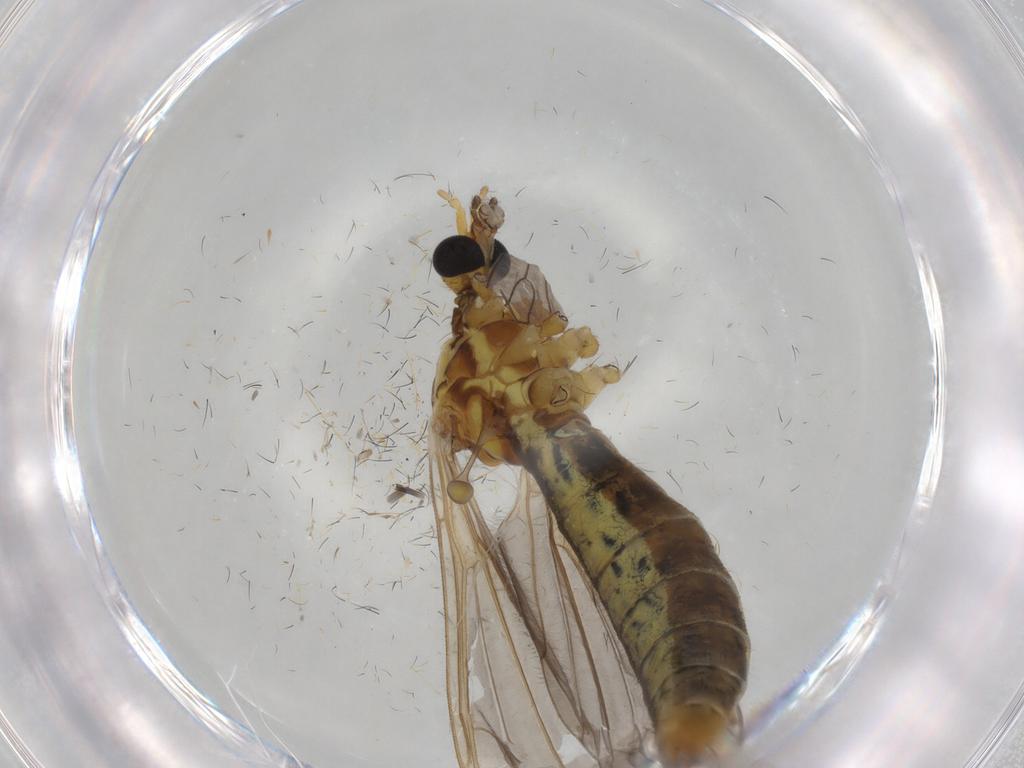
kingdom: Animalia
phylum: Arthropoda
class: Insecta
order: Diptera
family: Limoniidae
